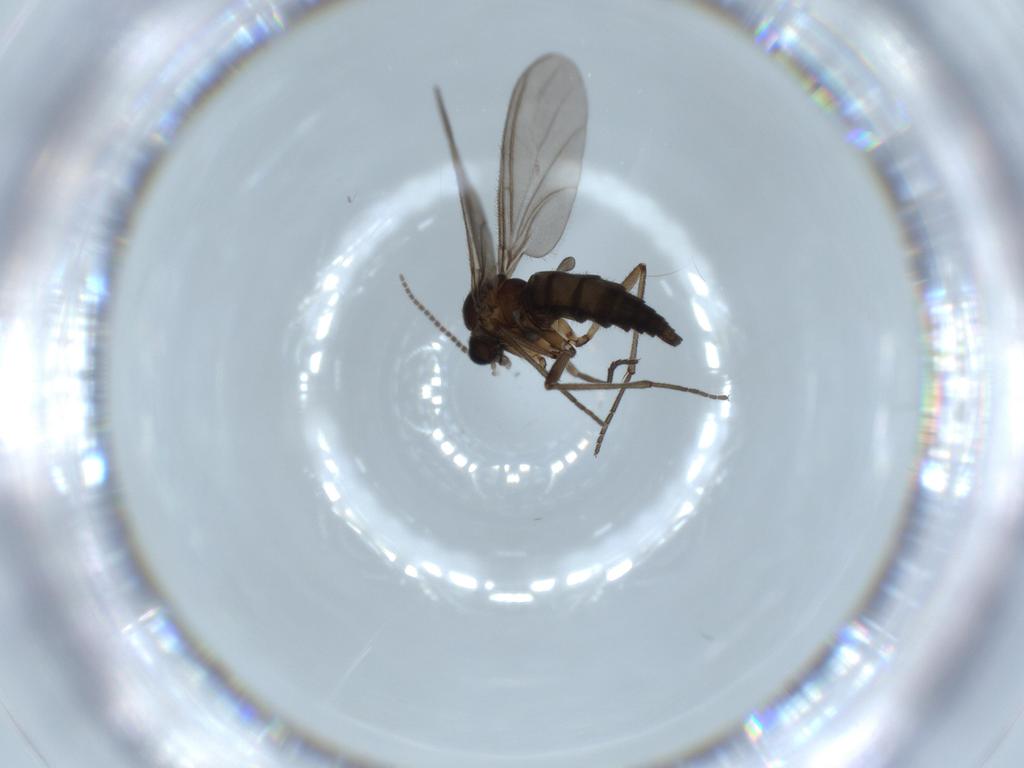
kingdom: Animalia
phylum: Arthropoda
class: Insecta
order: Diptera
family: Sciaridae
